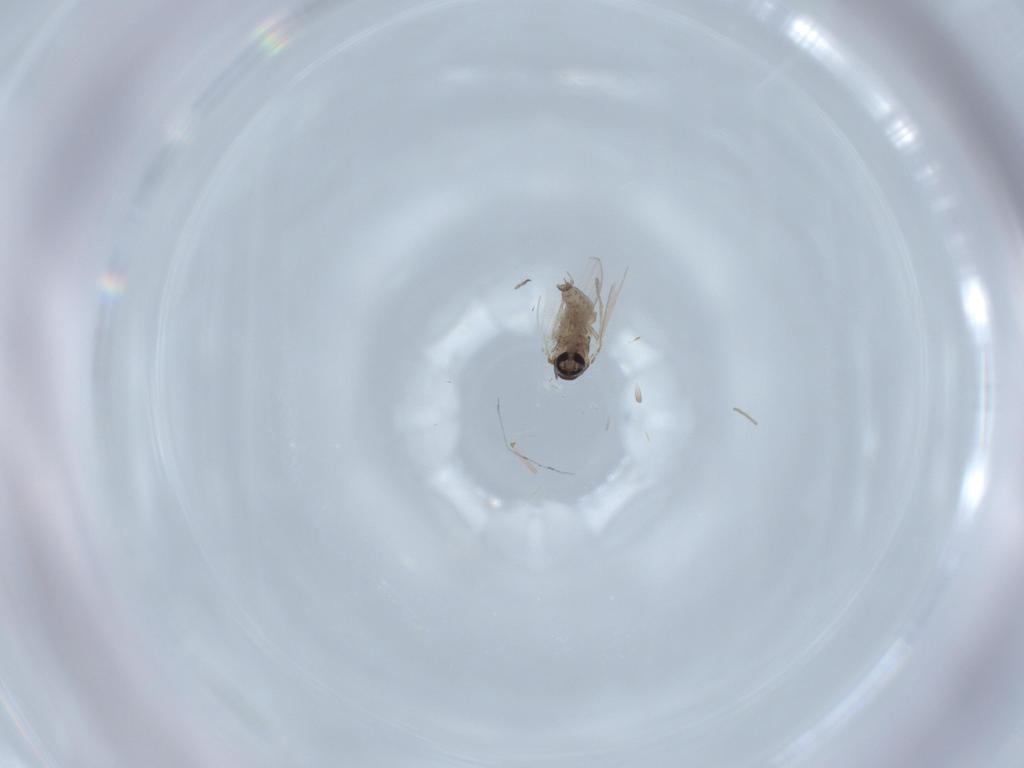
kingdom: Animalia
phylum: Arthropoda
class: Insecta
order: Diptera
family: Ceratopogonidae
